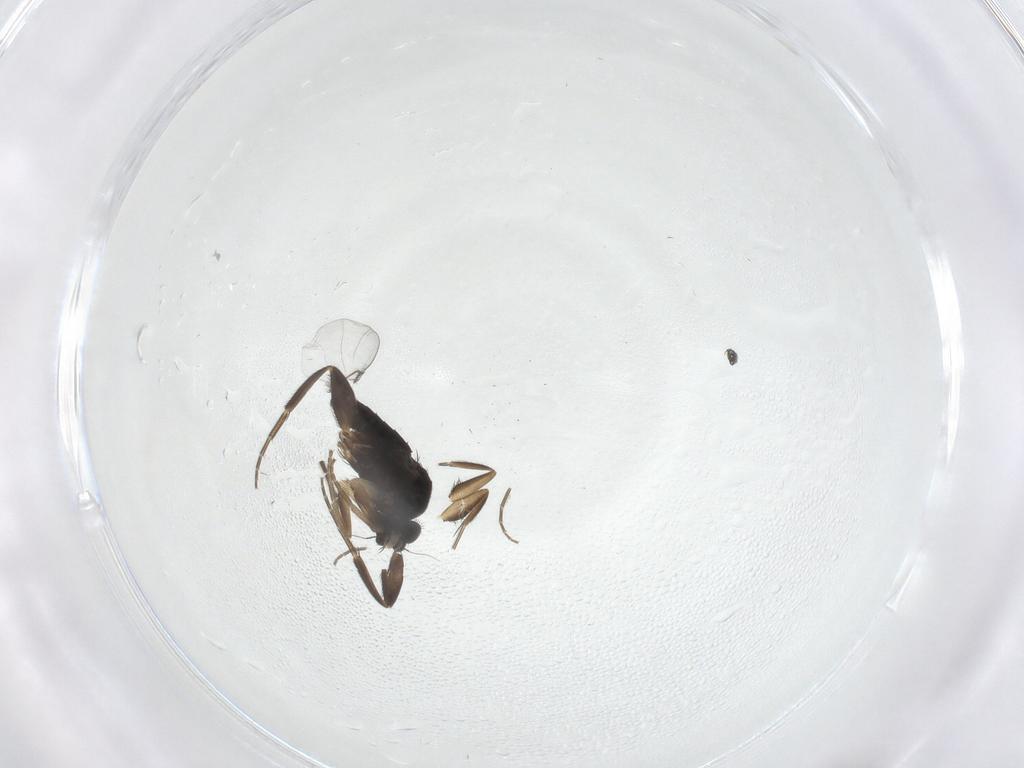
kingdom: Animalia
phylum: Arthropoda
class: Insecta
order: Diptera
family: Phoridae
